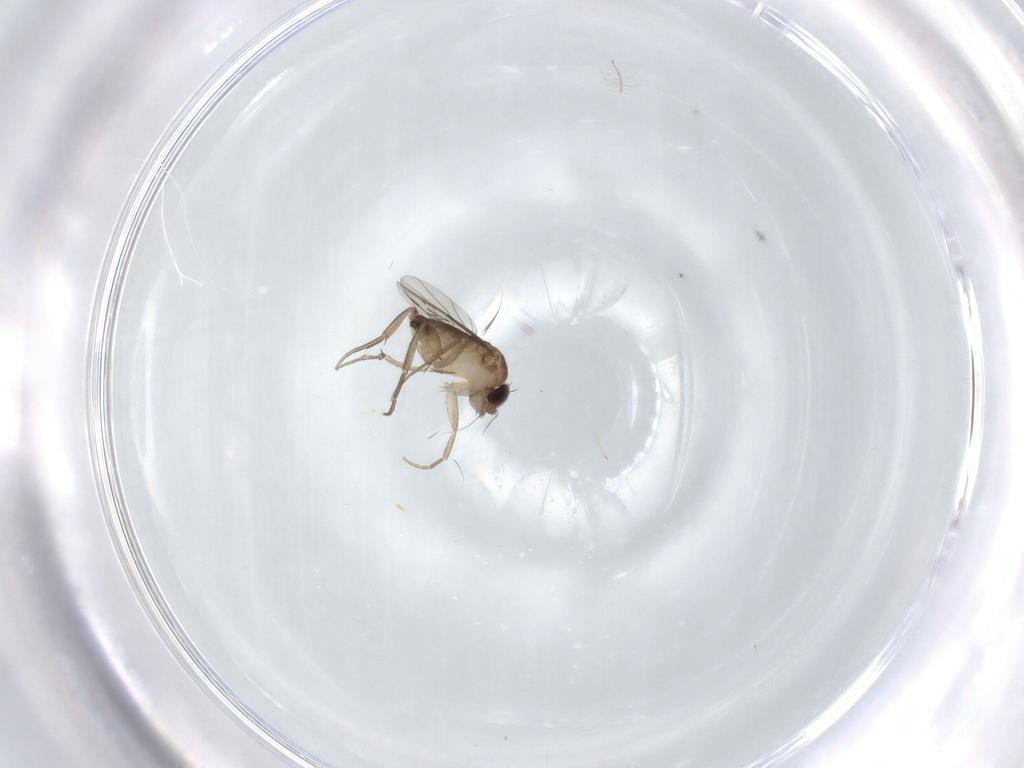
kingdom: Animalia
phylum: Arthropoda
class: Insecta
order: Diptera
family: Phoridae
